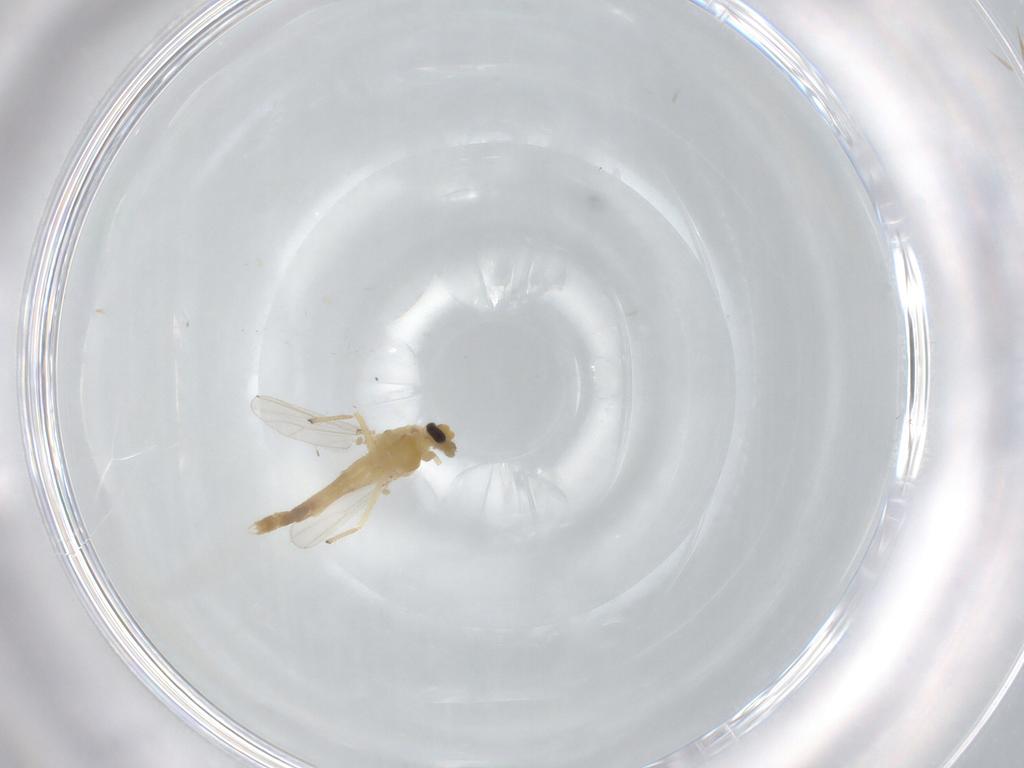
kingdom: Animalia
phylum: Arthropoda
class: Insecta
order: Diptera
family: Chironomidae
